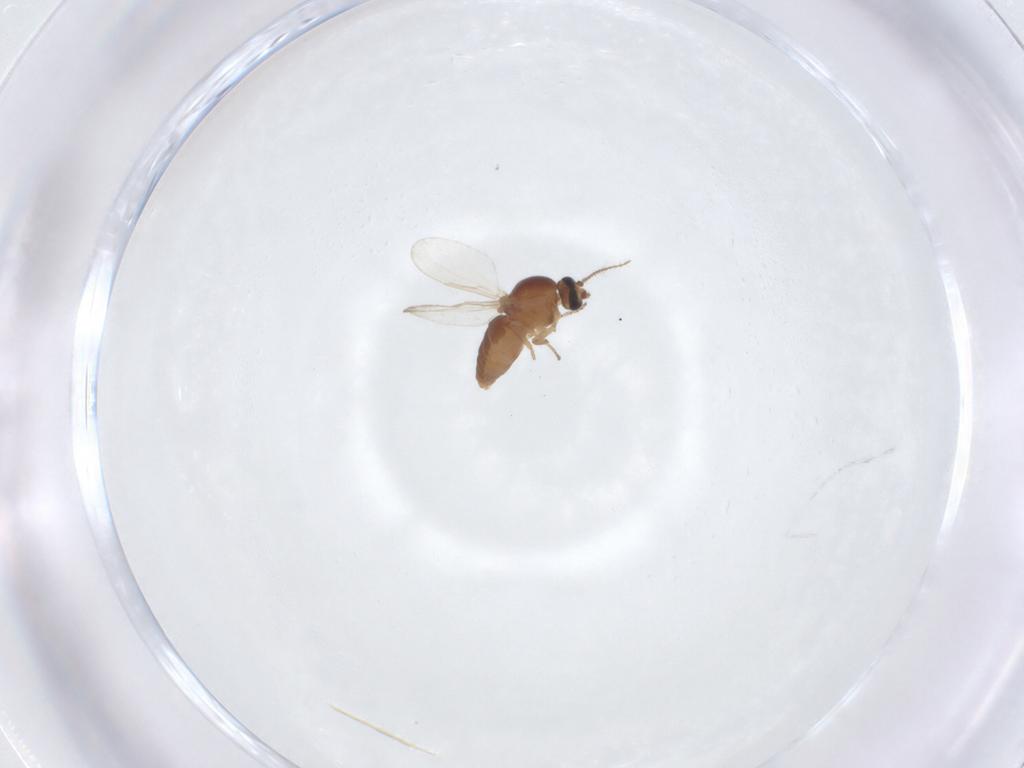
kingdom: Animalia
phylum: Arthropoda
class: Insecta
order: Diptera
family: Ceratopogonidae
